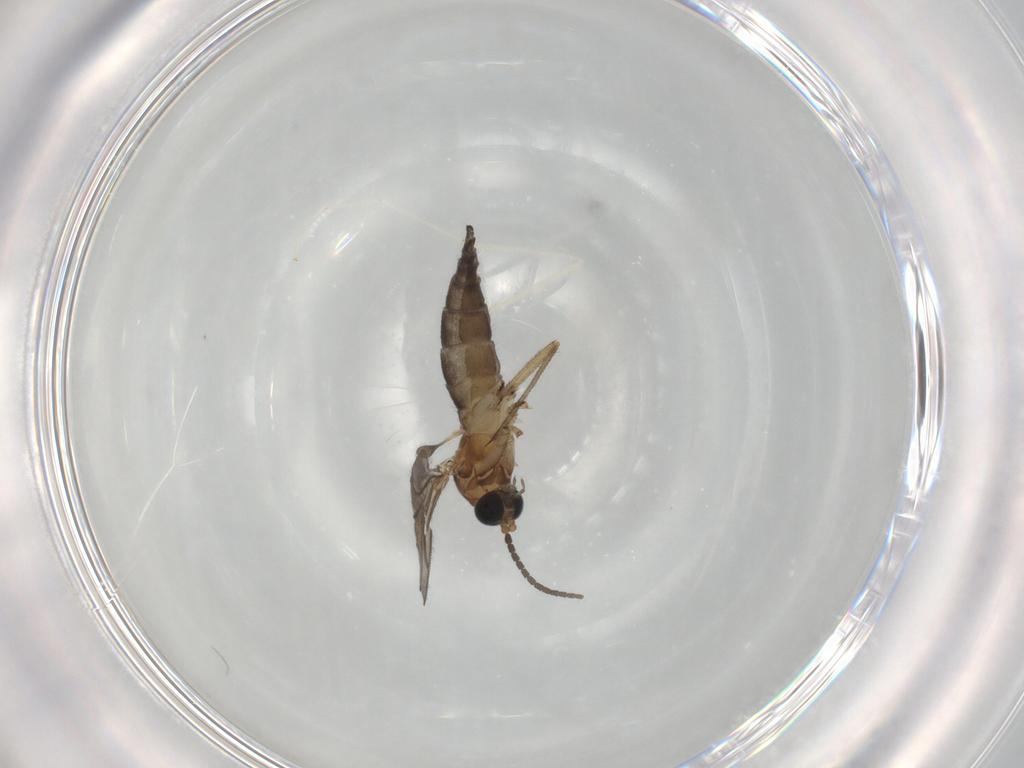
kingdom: Animalia
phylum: Arthropoda
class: Insecta
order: Diptera
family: Sciaridae
